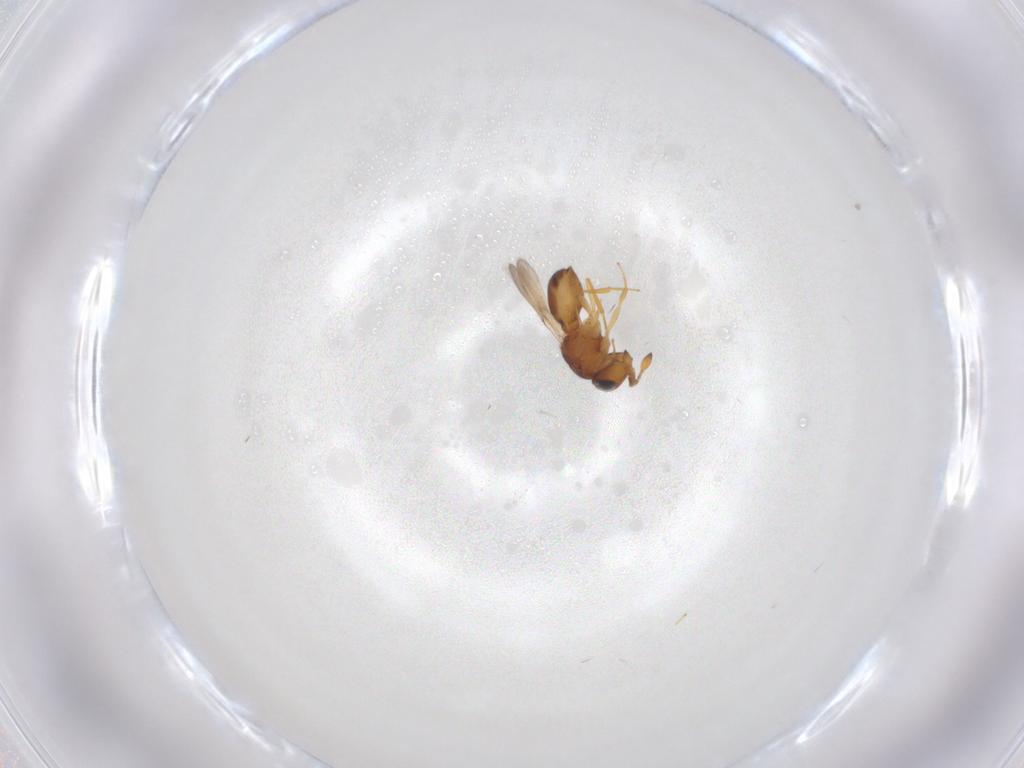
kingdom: Animalia
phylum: Arthropoda
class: Insecta
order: Hymenoptera
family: Scelionidae
